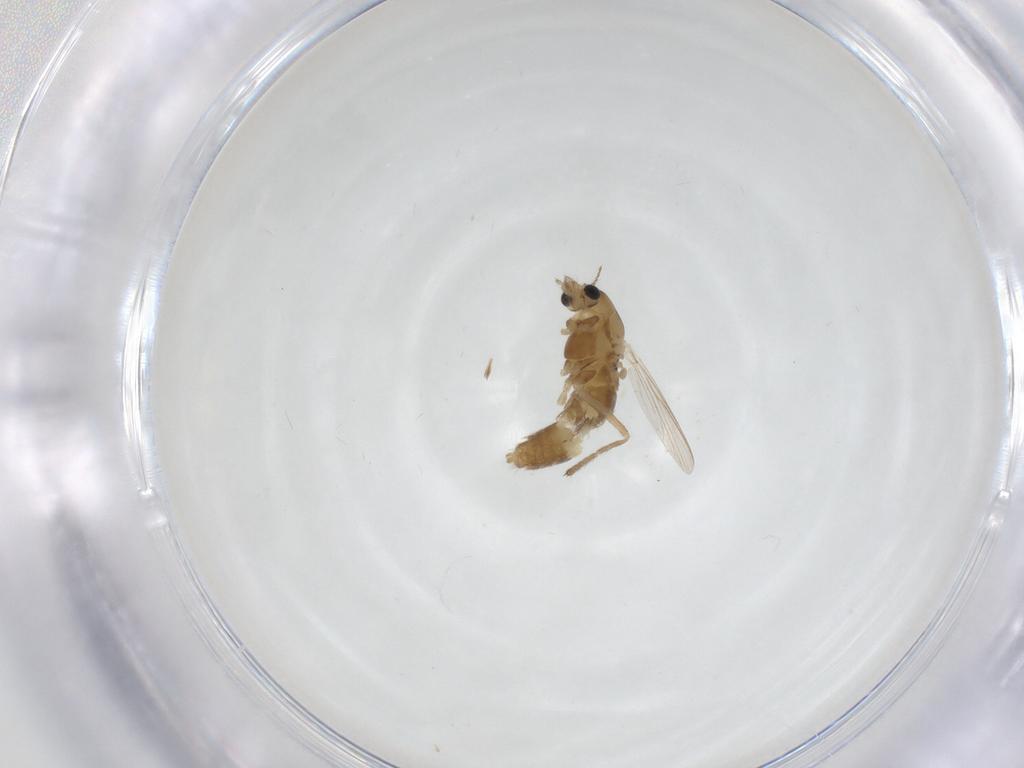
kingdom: Animalia
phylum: Arthropoda
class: Insecta
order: Diptera
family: Chironomidae
